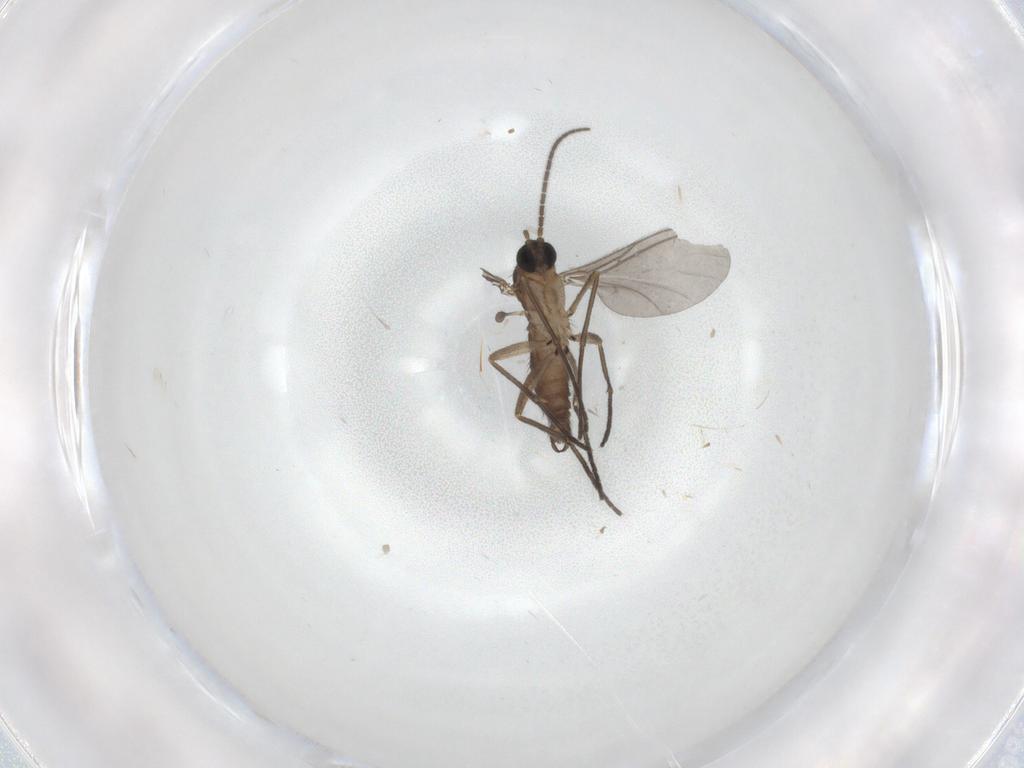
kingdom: Animalia
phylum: Arthropoda
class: Insecta
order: Diptera
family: Sciaridae
